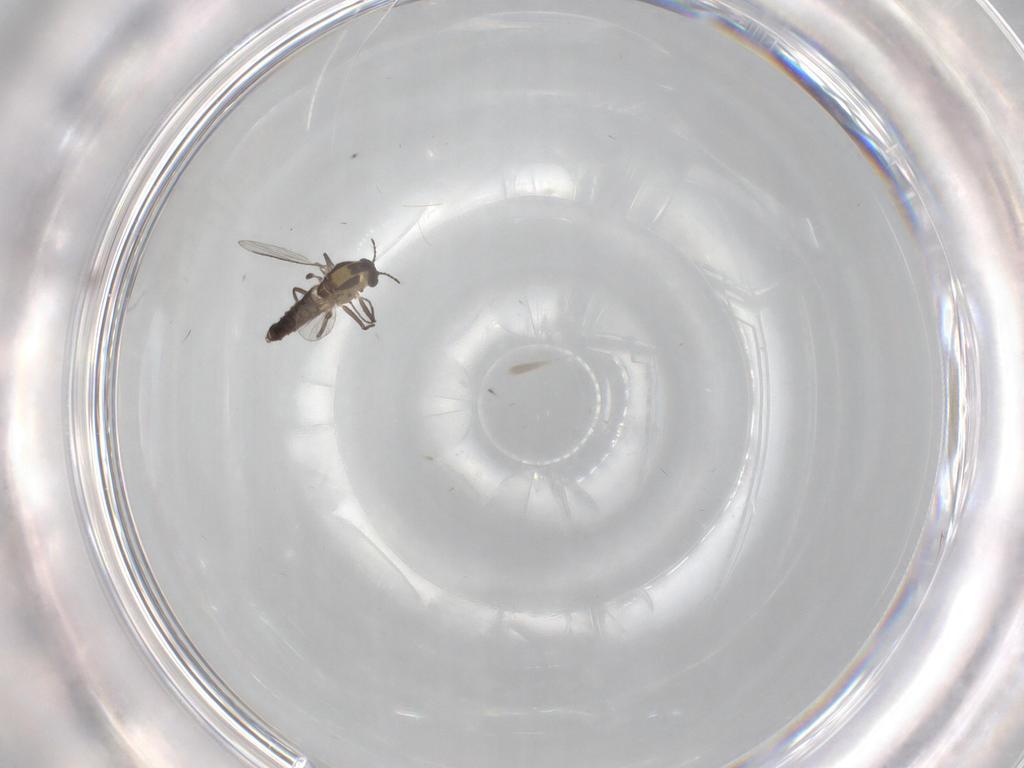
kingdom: Animalia
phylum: Arthropoda
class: Insecta
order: Diptera
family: Chironomidae
